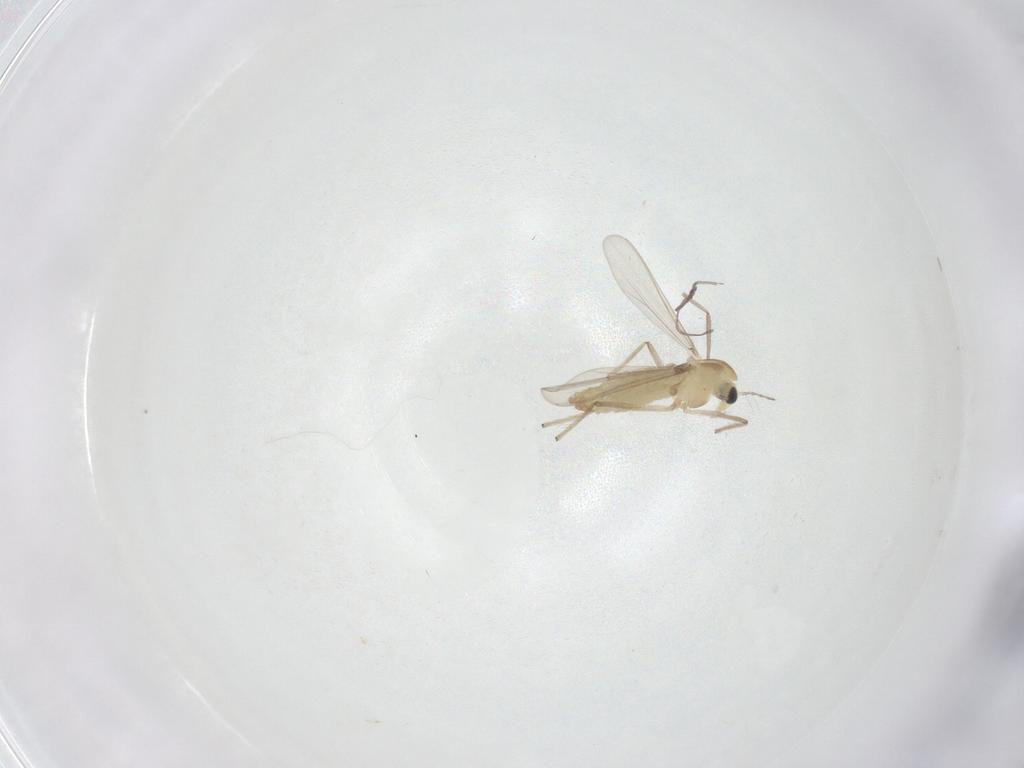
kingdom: Animalia
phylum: Arthropoda
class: Insecta
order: Diptera
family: Chironomidae
